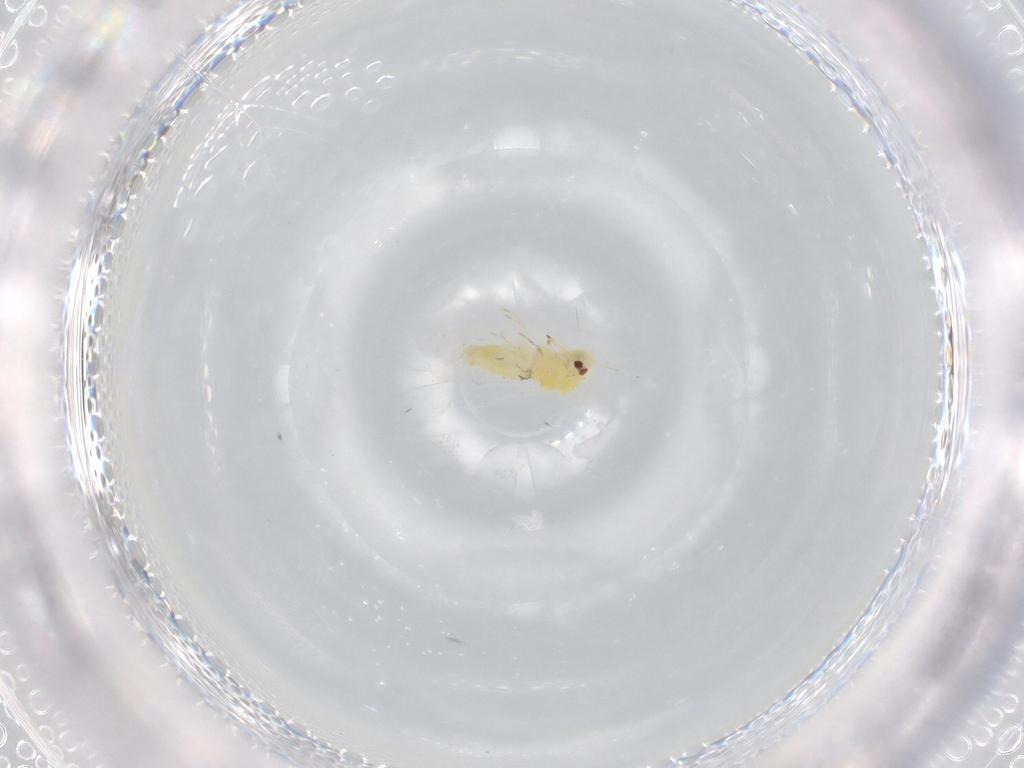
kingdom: Animalia
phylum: Arthropoda
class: Insecta
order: Hemiptera
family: Aleyrodidae
